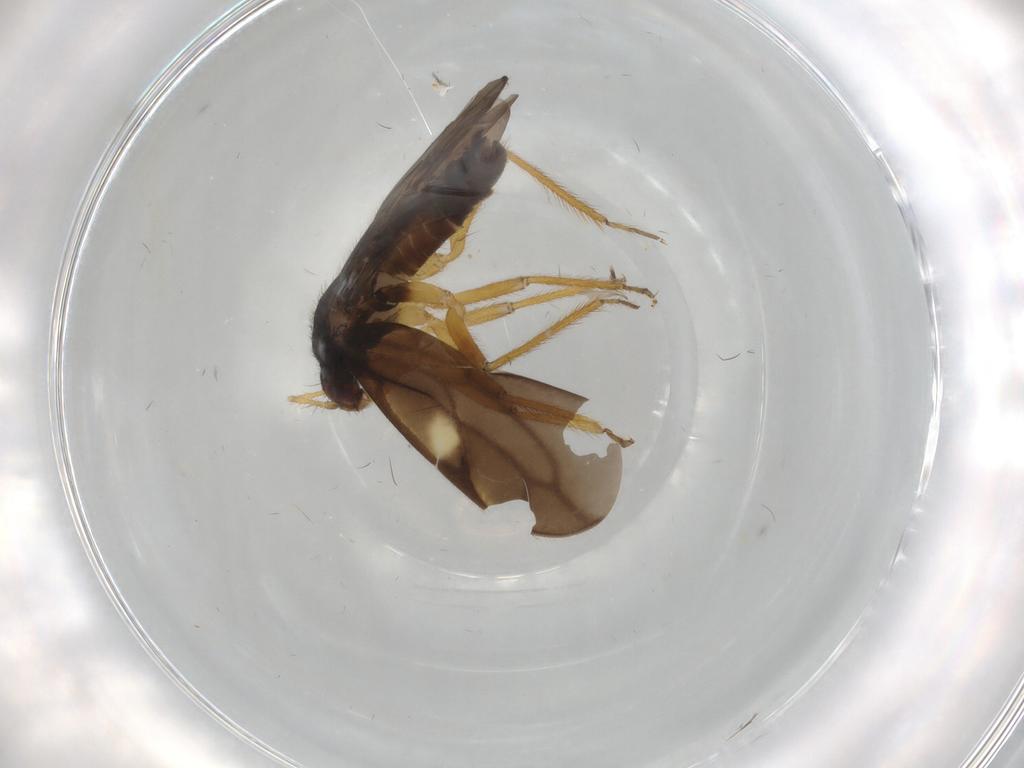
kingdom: Animalia
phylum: Arthropoda
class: Insecta
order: Hemiptera
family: Ceratocombidae
